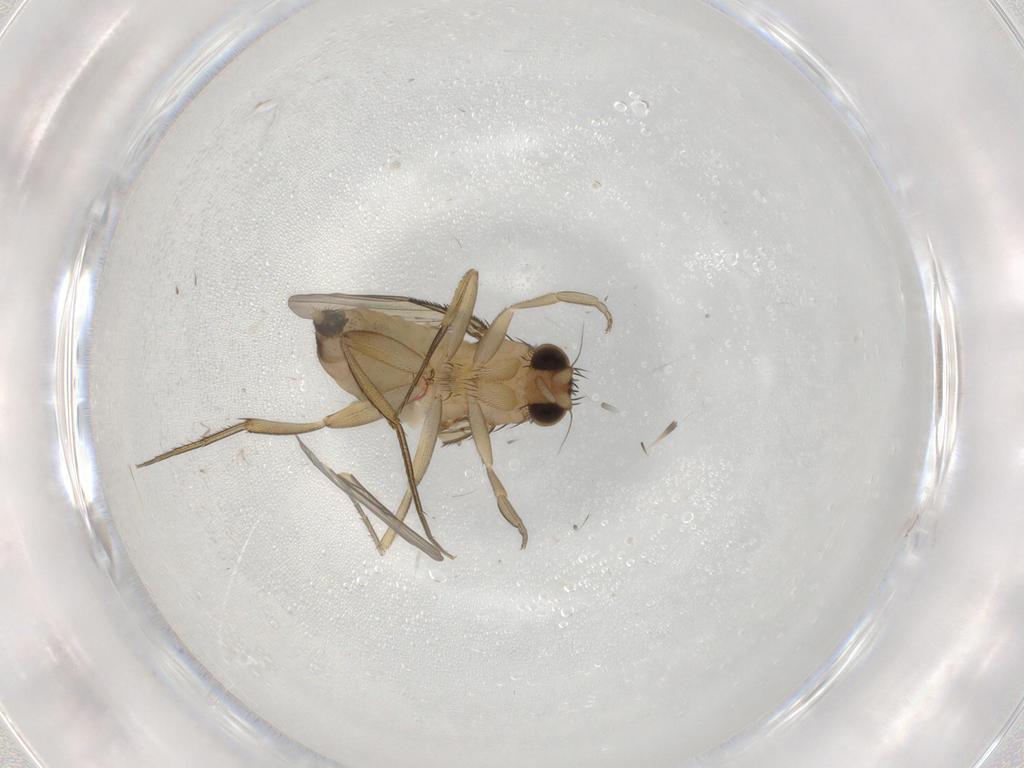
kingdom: Animalia
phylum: Arthropoda
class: Insecta
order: Diptera
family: Phoridae
